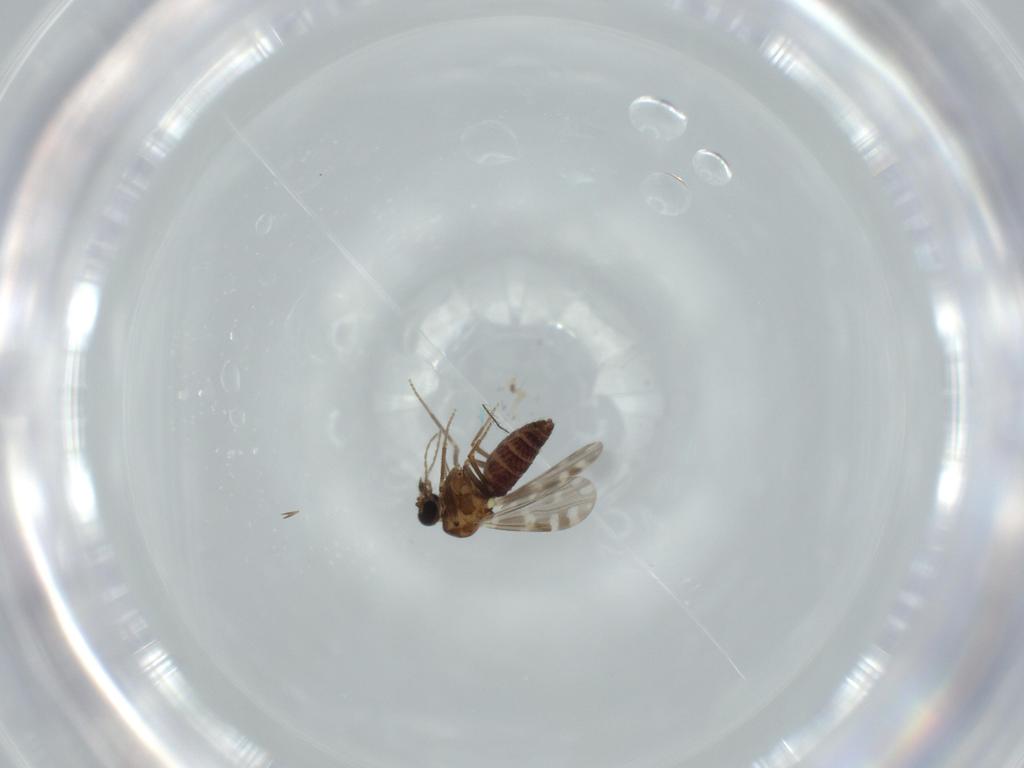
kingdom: Animalia
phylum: Arthropoda
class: Insecta
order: Diptera
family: Ceratopogonidae
